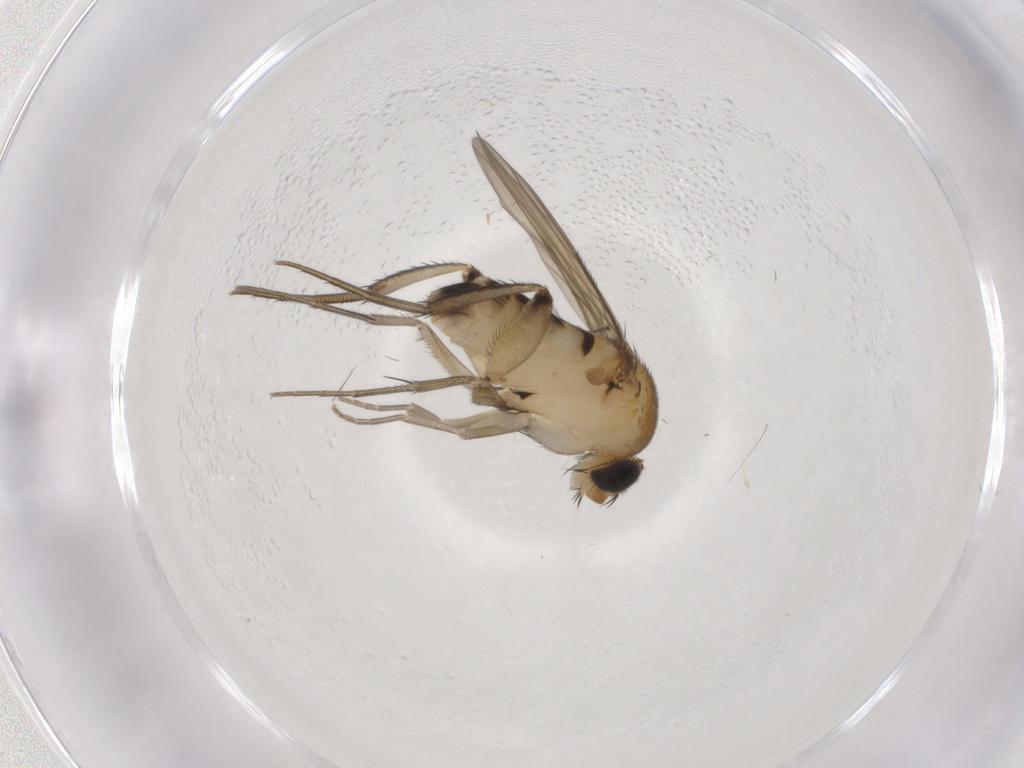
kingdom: Animalia
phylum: Arthropoda
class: Insecta
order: Diptera
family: Phoridae
